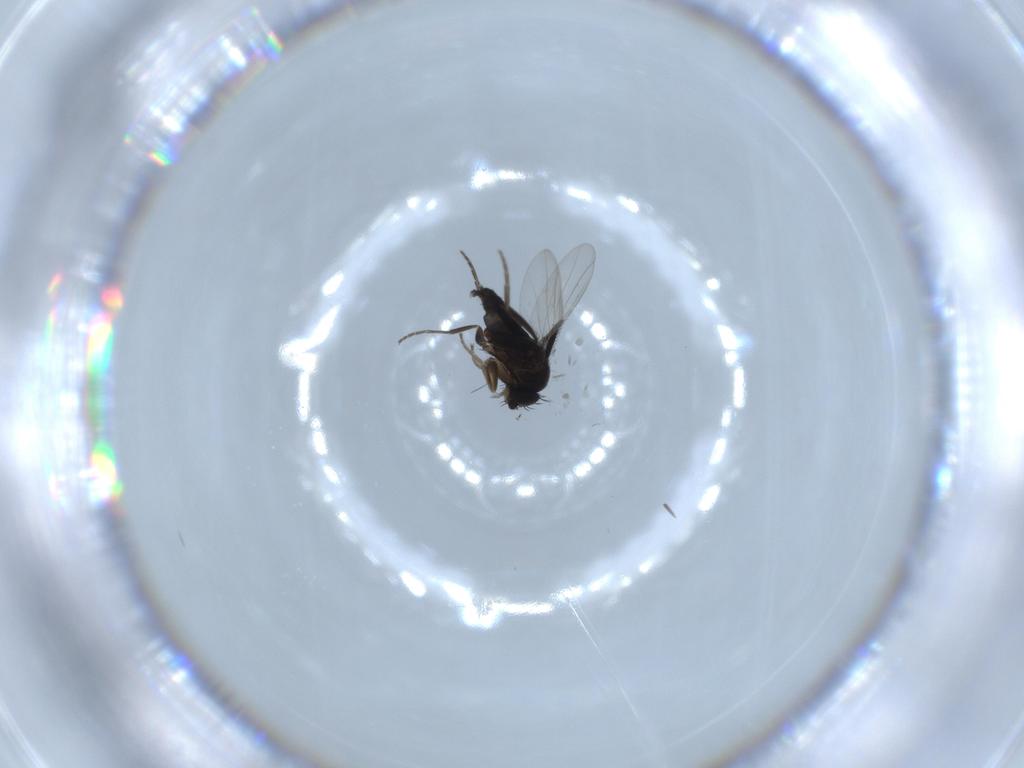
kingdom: Animalia
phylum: Arthropoda
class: Insecta
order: Diptera
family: Phoridae
